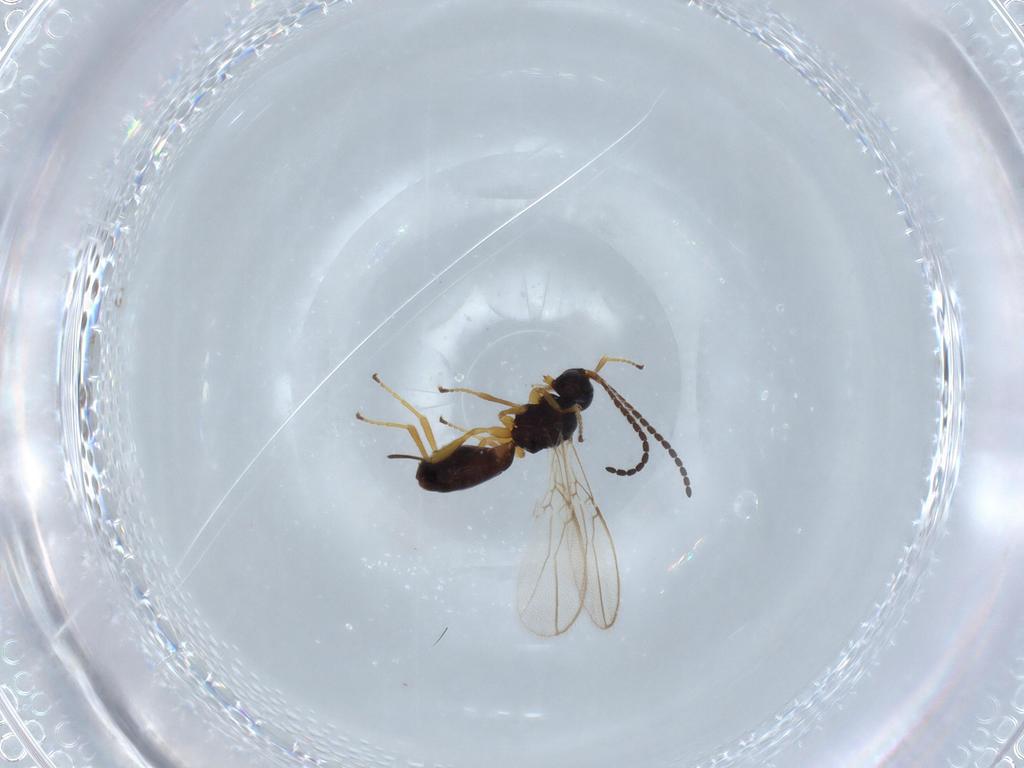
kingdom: Animalia
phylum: Arthropoda
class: Insecta
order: Hymenoptera
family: Braconidae
